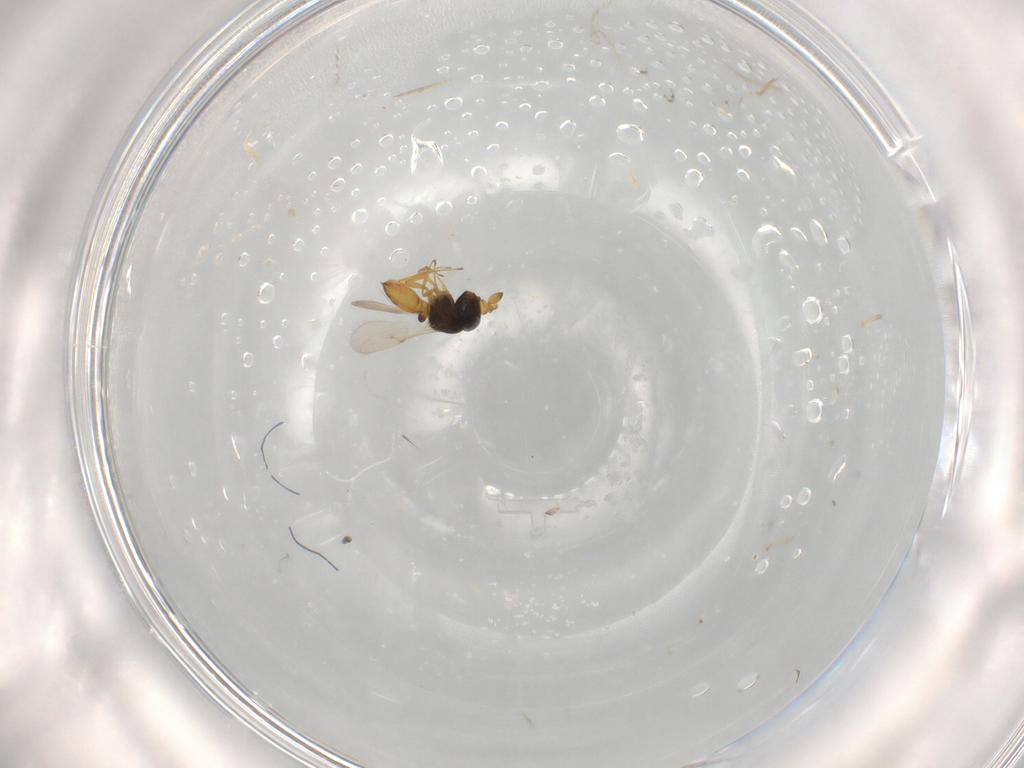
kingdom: Animalia
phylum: Arthropoda
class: Insecta
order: Hymenoptera
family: Scelionidae
